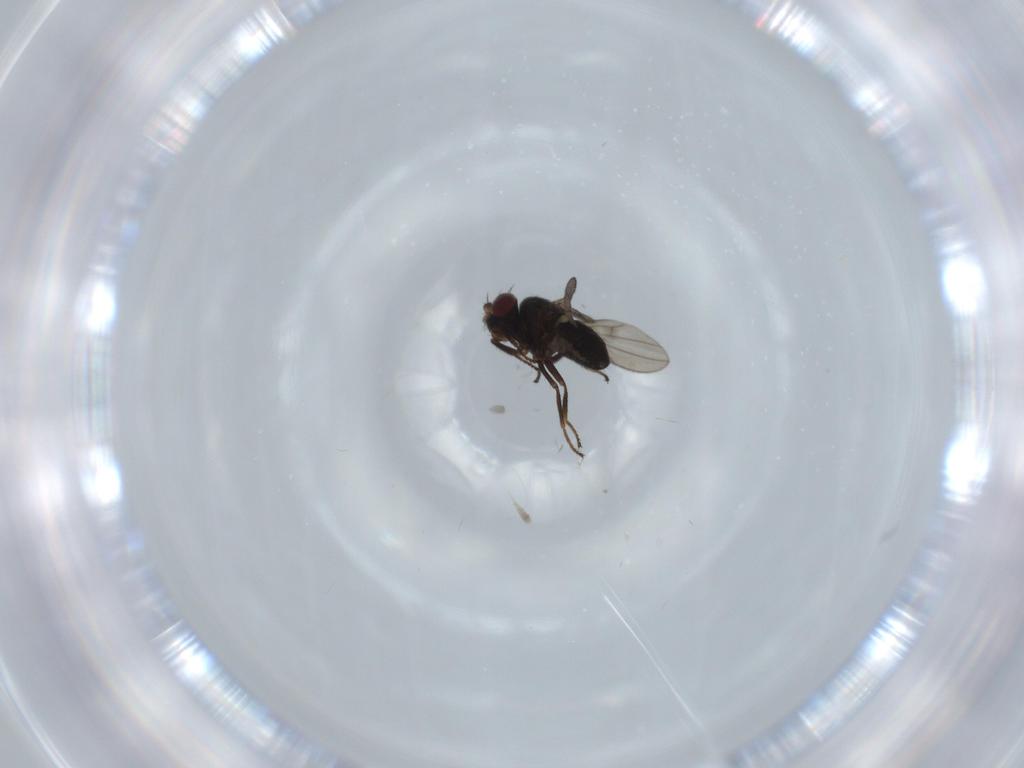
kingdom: Animalia
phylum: Arthropoda
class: Insecta
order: Diptera
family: Ephydridae
